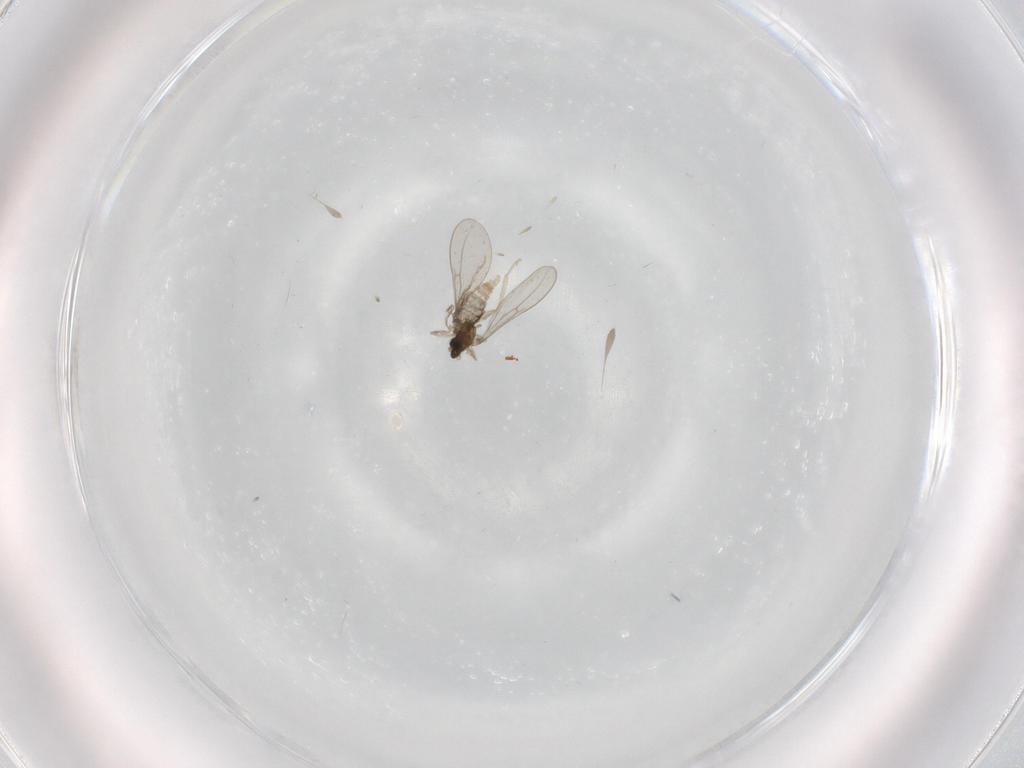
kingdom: Animalia
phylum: Arthropoda
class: Insecta
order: Diptera
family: Cecidomyiidae
